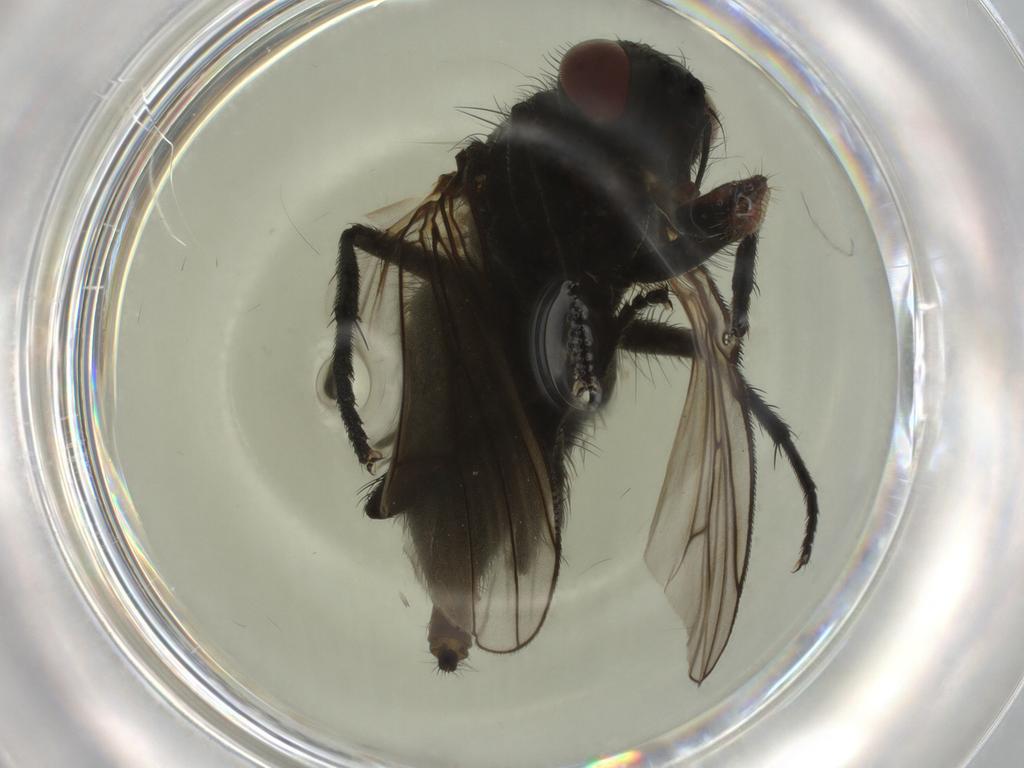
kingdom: Animalia
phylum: Arthropoda
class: Insecta
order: Diptera
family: Muscidae
